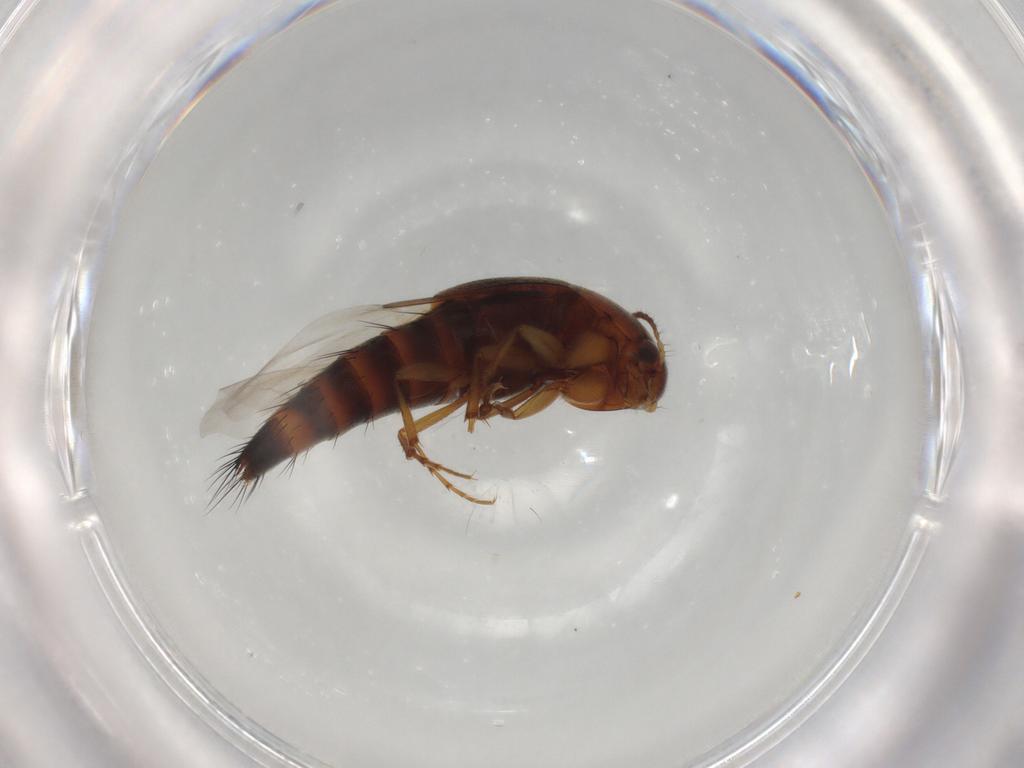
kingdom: Animalia
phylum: Arthropoda
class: Insecta
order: Coleoptera
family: Staphylinidae
